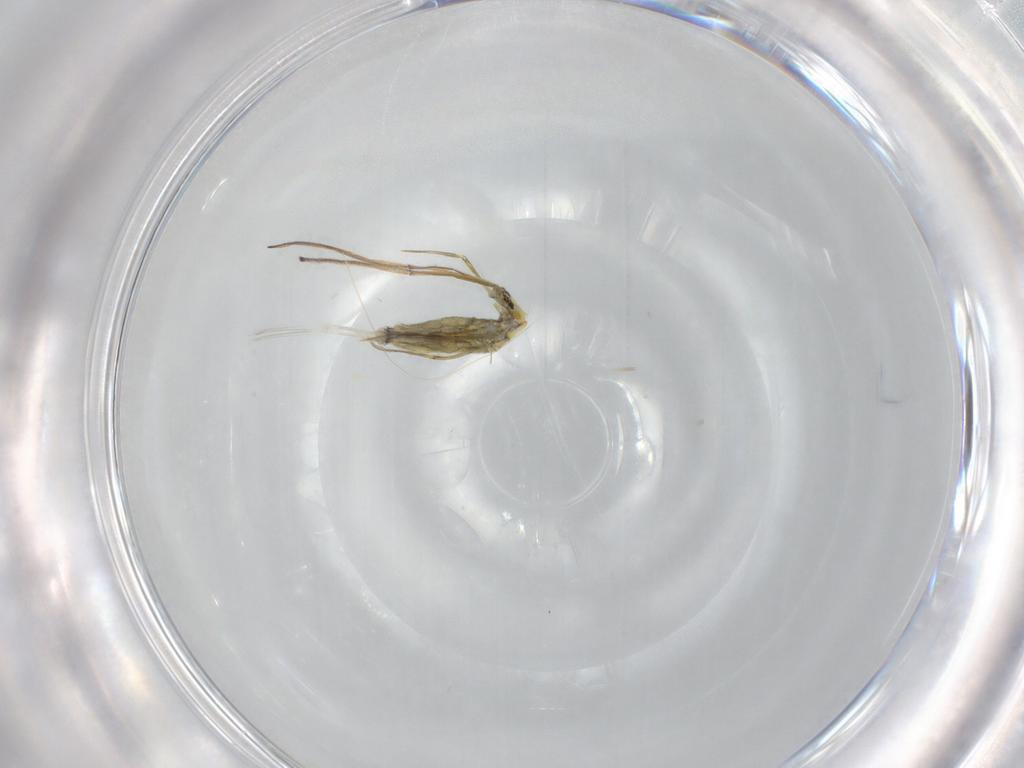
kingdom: Animalia
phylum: Arthropoda
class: Collembola
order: Entomobryomorpha
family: Entomobryidae
